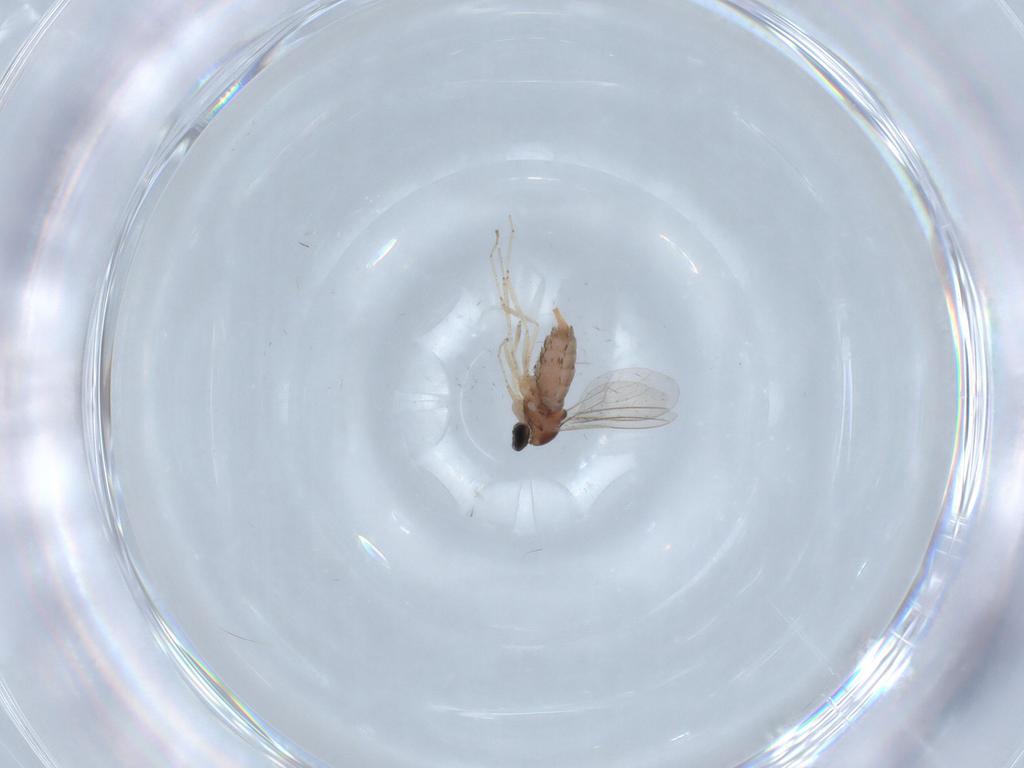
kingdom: Animalia
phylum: Arthropoda
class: Insecta
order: Diptera
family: Cecidomyiidae
